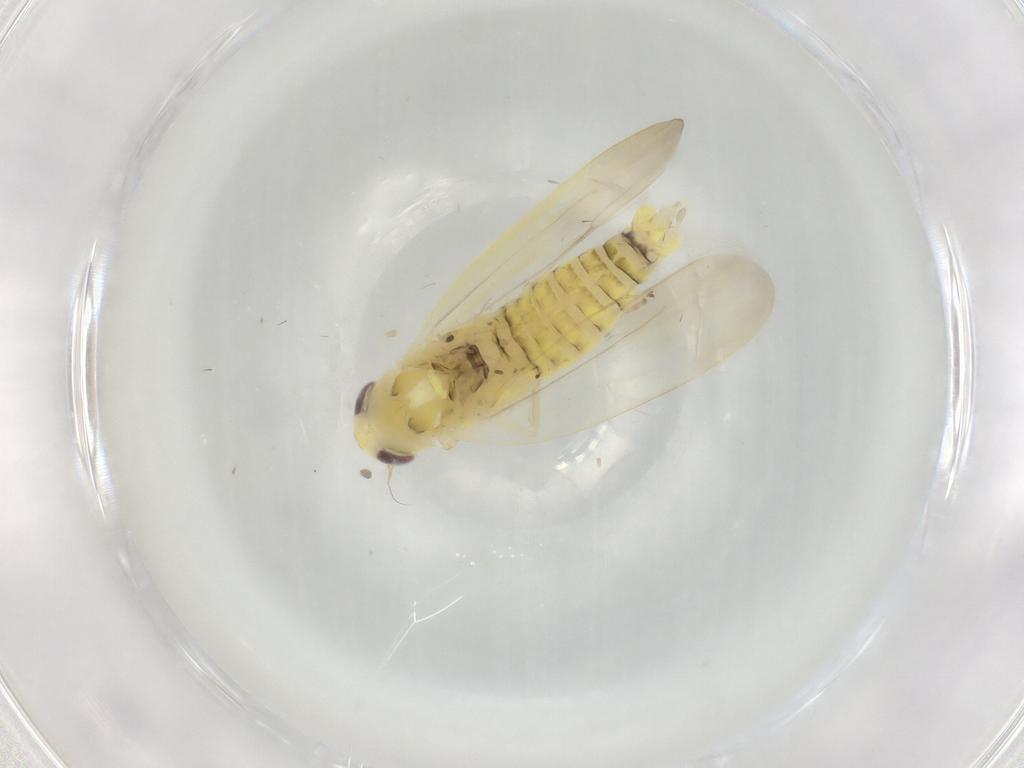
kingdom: Animalia
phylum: Arthropoda
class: Insecta
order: Hemiptera
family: Cicadellidae
